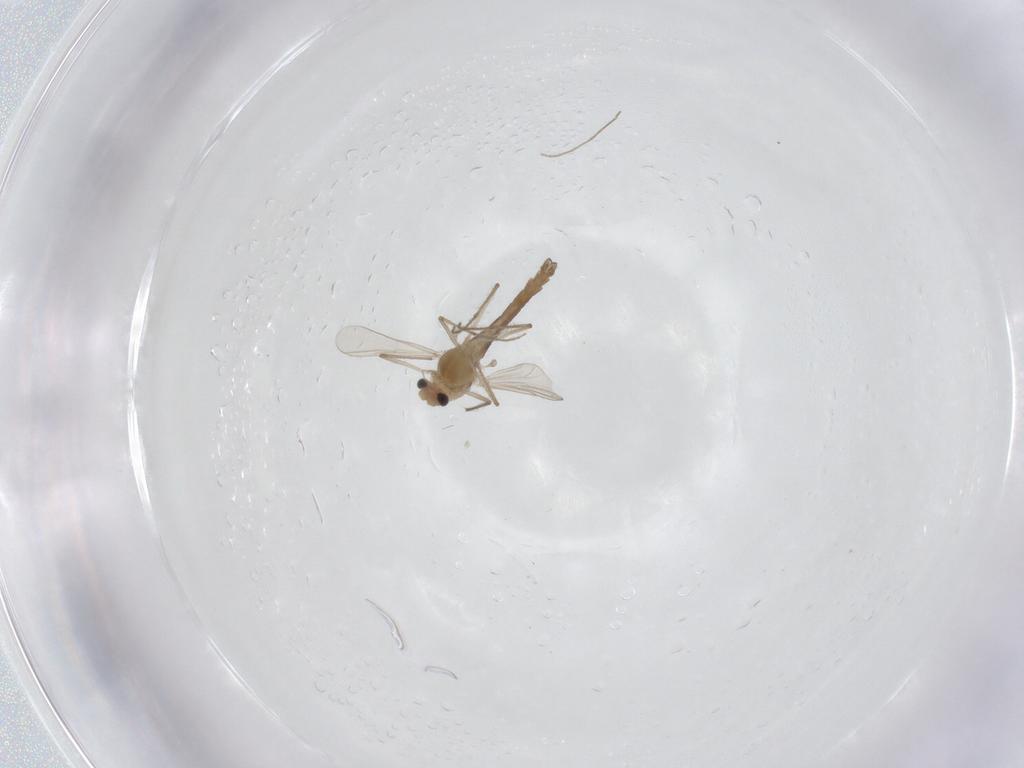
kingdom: Animalia
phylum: Arthropoda
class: Insecta
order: Diptera
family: Chironomidae
